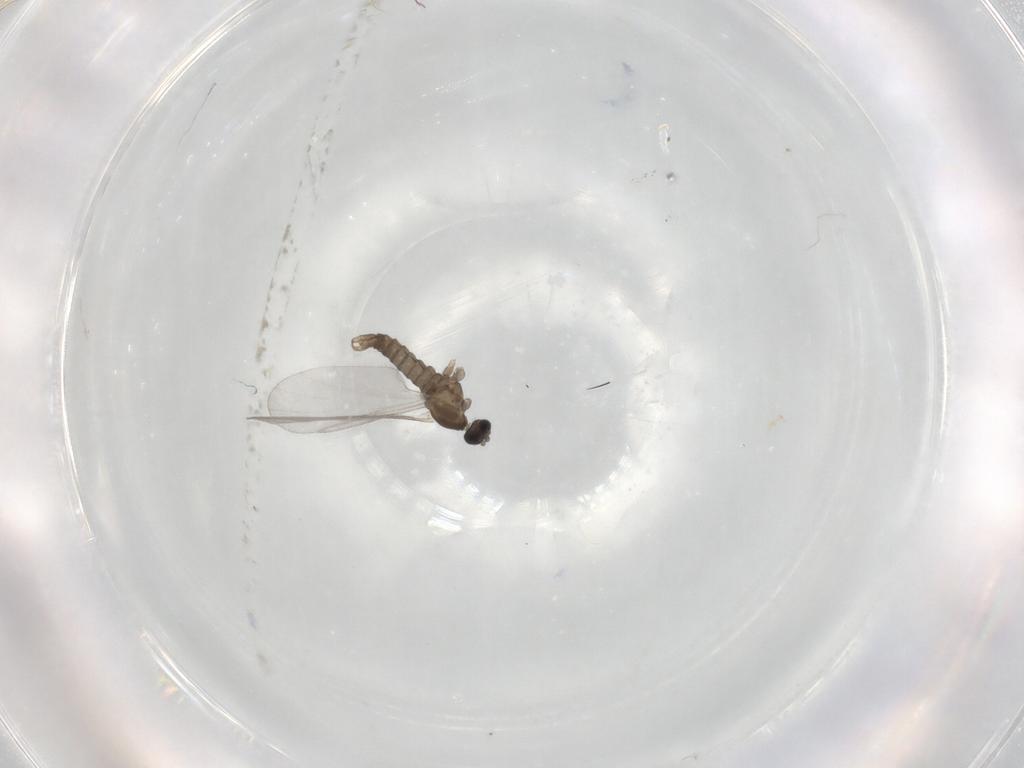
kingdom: Animalia
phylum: Arthropoda
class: Insecta
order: Diptera
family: Cecidomyiidae
